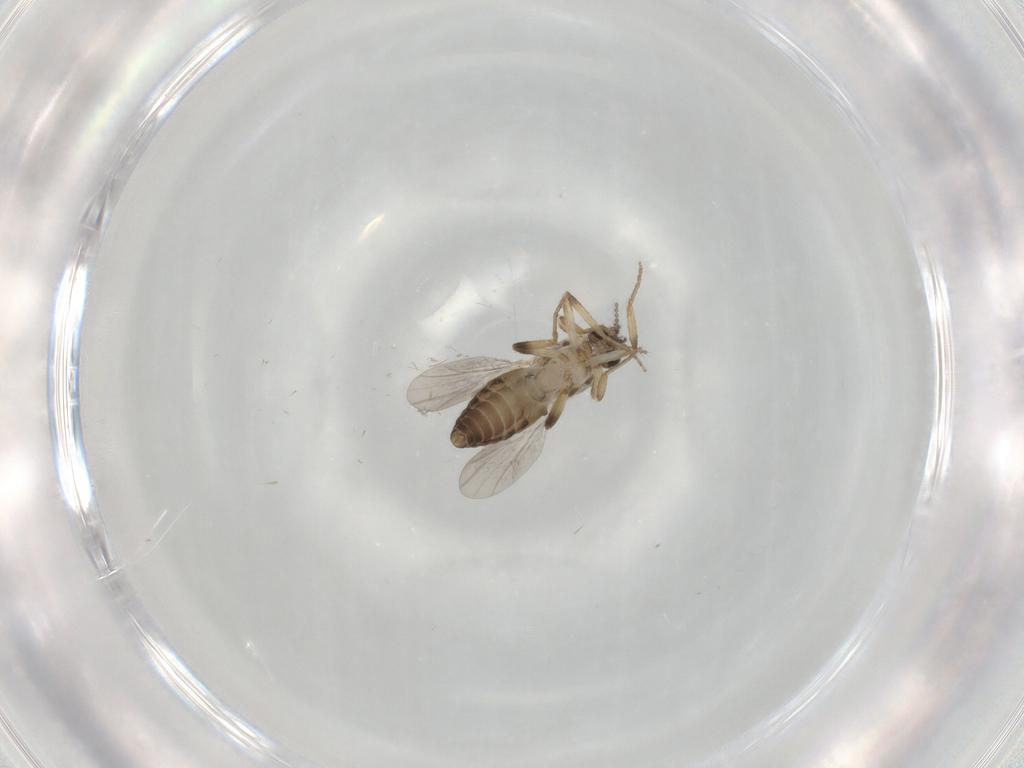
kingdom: Animalia
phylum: Arthropoda
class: Insecta
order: Diptera
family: Ceratopogonidae
